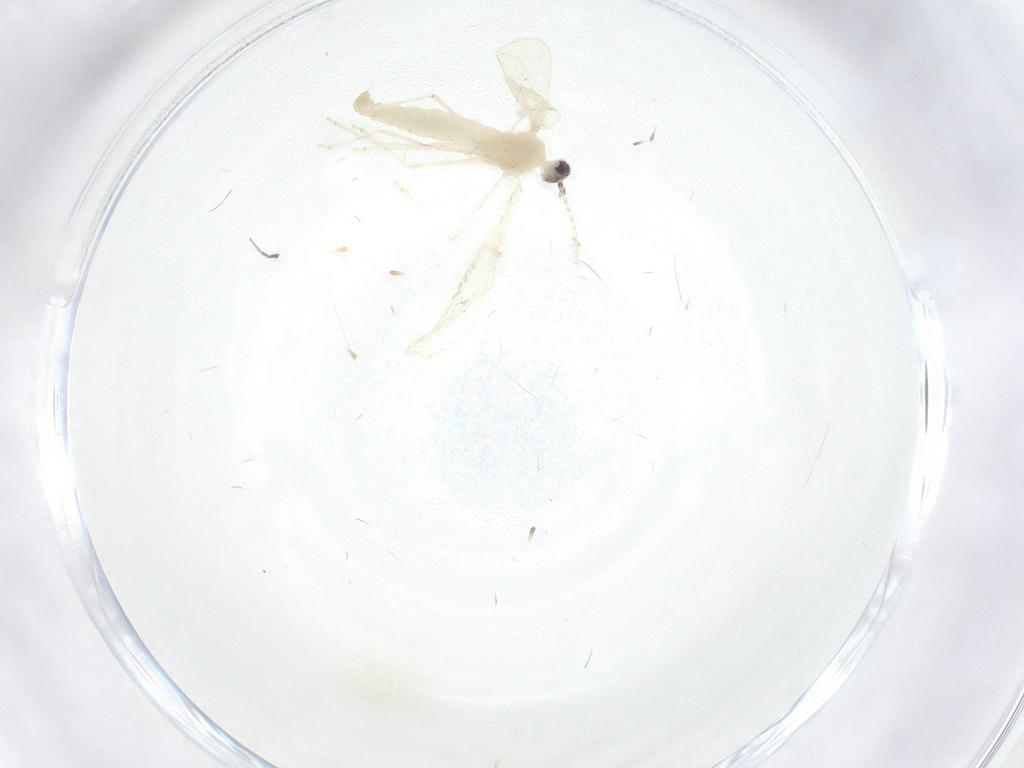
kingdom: Animalia
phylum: Arthropoda
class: Insecta
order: Diptera
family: Cecidomyiidae
